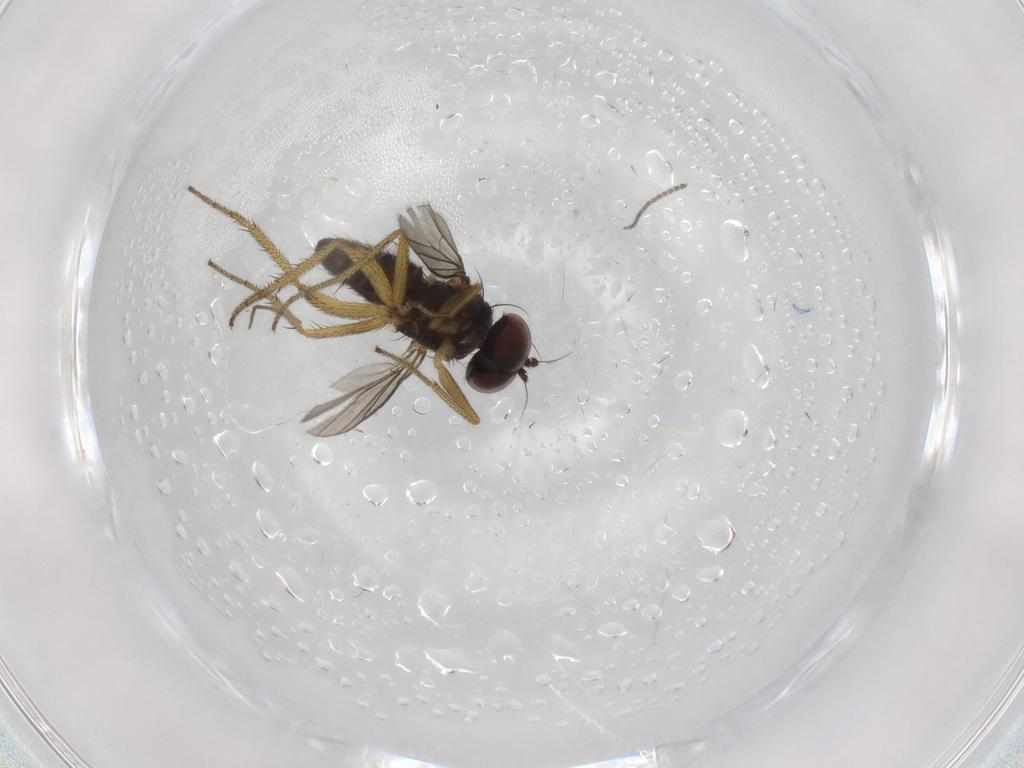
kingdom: Animalia
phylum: Arthropoda
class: Insecta
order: Diptera
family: Sciaridae
